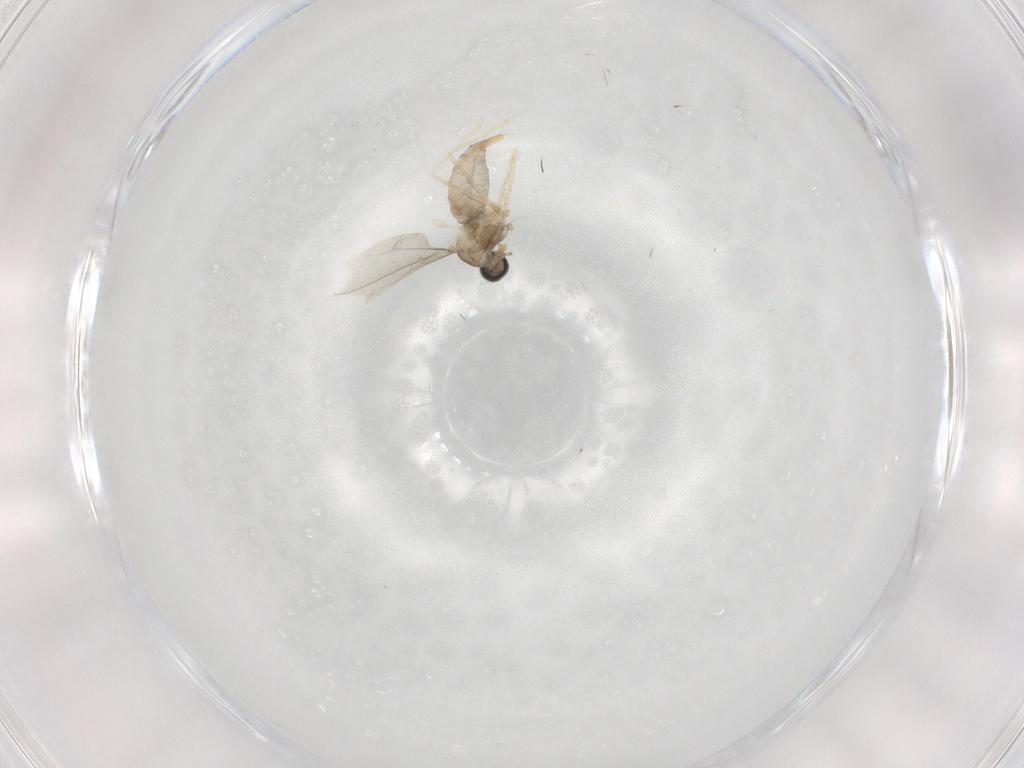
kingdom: Animalia
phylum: Arthropoda
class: Insecta
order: Diptera
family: Cecidomyiidae
